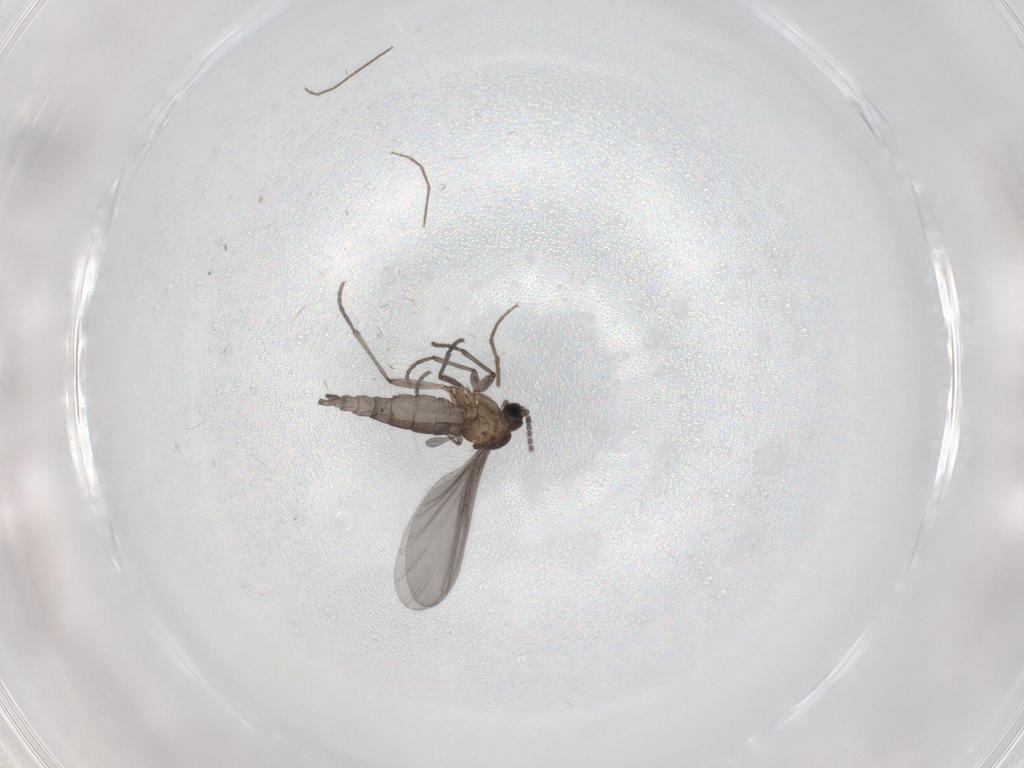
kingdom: Animalia
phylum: Arthropoda
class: Insecta
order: Diptera
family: Sciaridae
